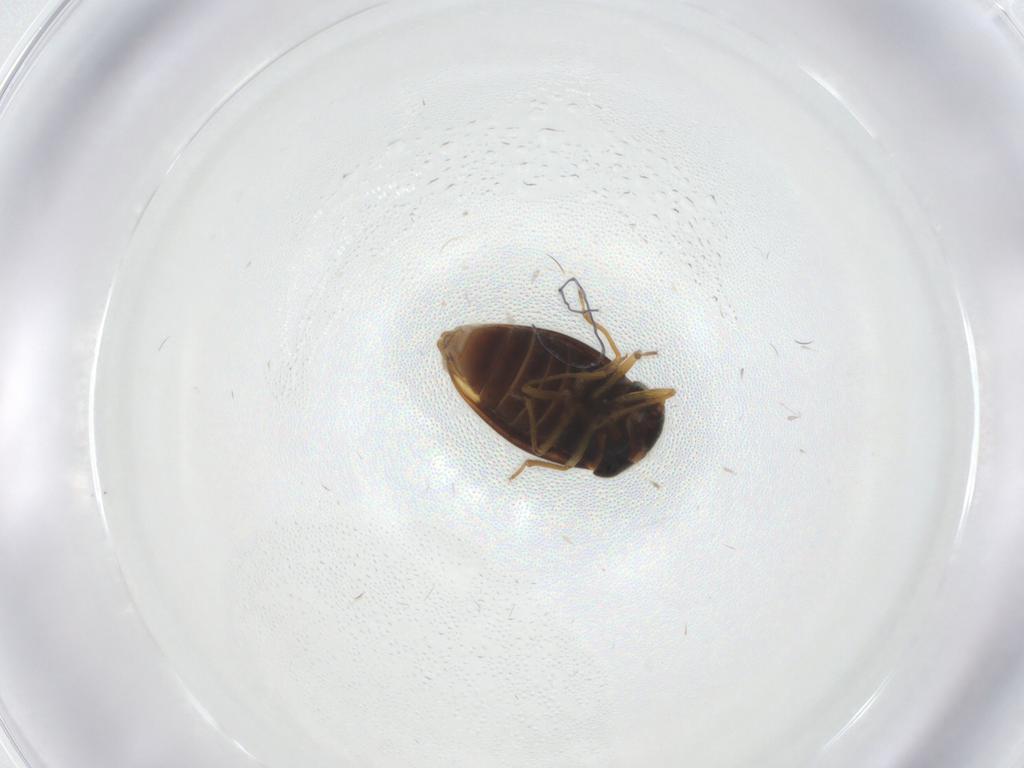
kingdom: Animalia
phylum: Arthropoda
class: Insecta
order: Hemiptera
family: Schizopteridae
